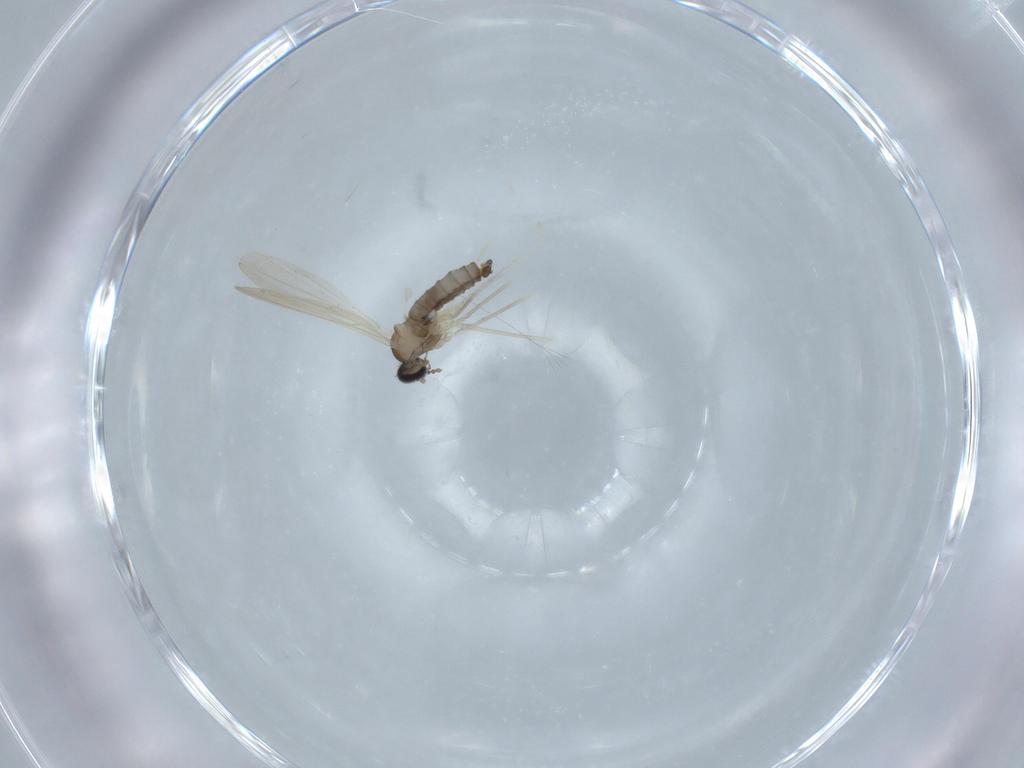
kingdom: Animalia
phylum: Arthropoda
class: Insecta
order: Diptera
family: Cecidomyiidae
